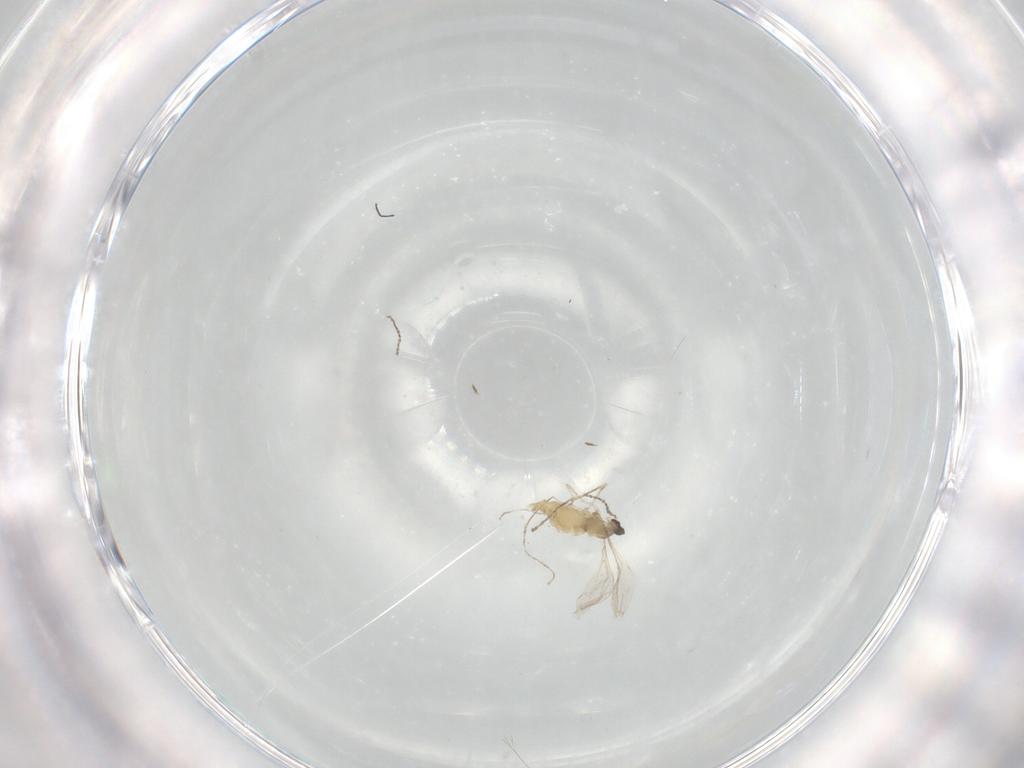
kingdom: Animalia
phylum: Arthropoda
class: Insecta
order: Diptera
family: Cecidomyiidae
